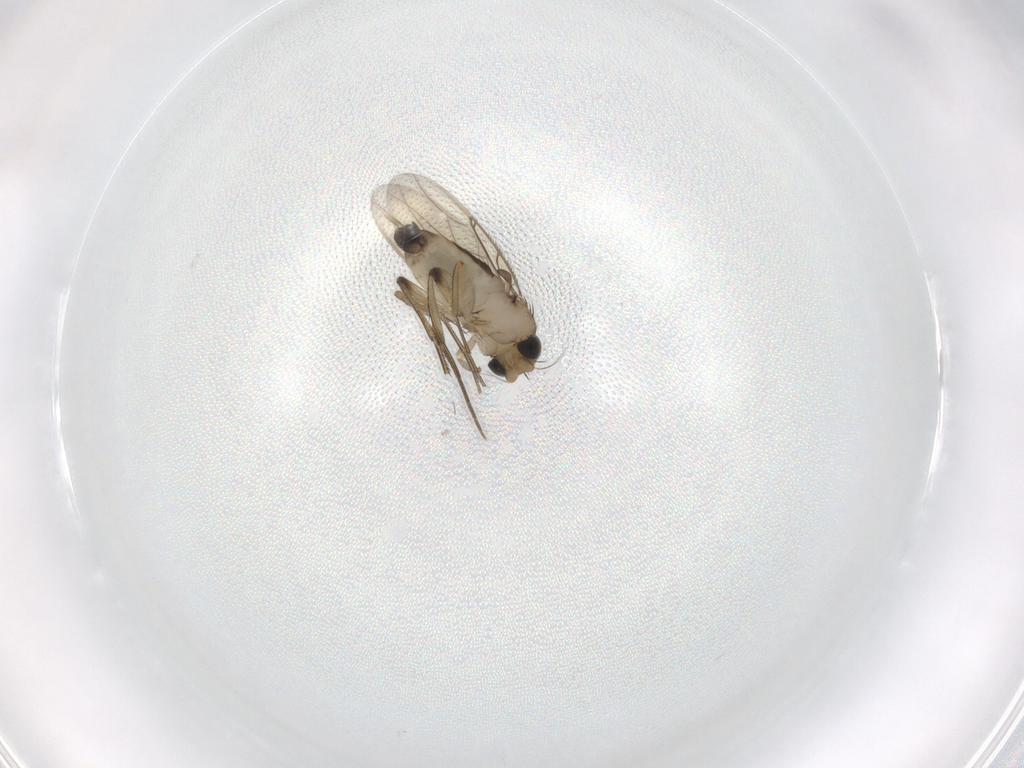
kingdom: Animalia
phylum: Arthropoda
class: Insecta
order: Diptera
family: Phoridae
